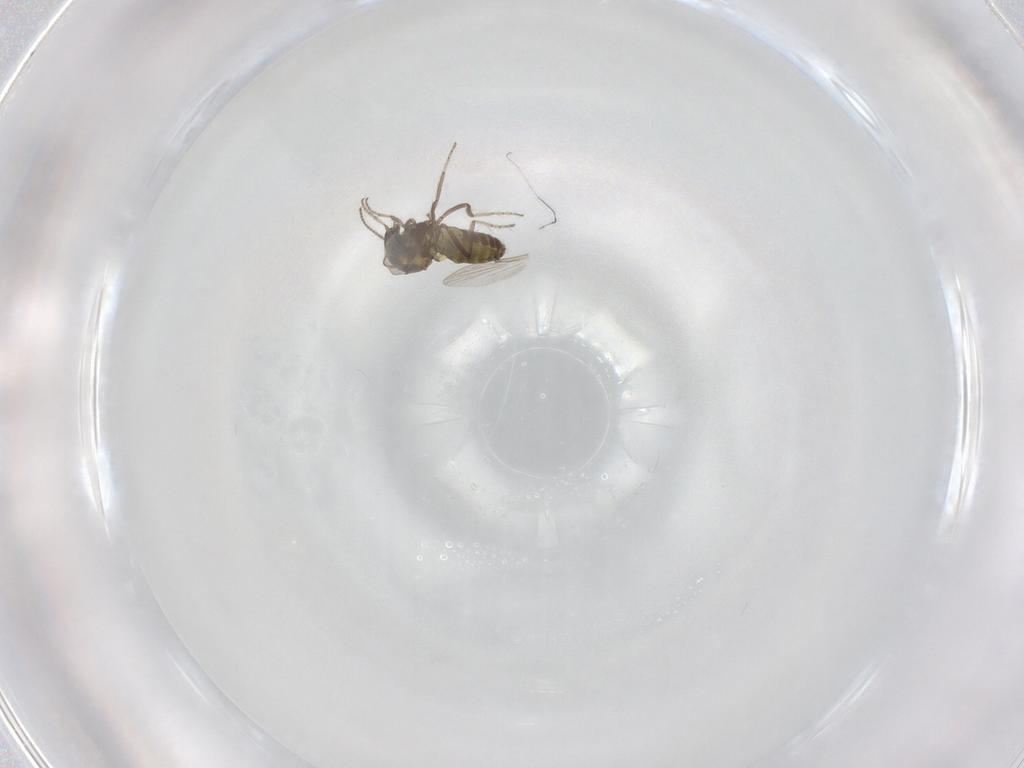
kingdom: Animalia
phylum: Arthropoda
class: Insecta
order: Diptera
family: Ceratopogonidae
